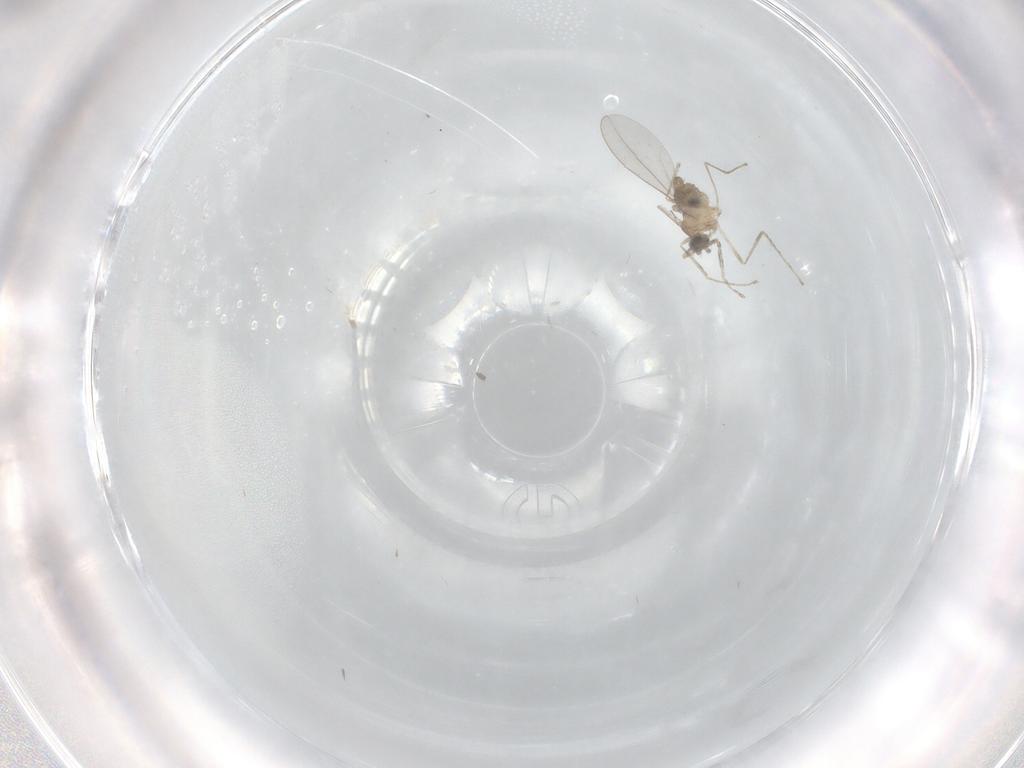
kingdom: Animalia
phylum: Arthropoda
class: Insecta
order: Diptera
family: Cecidomyiidae
